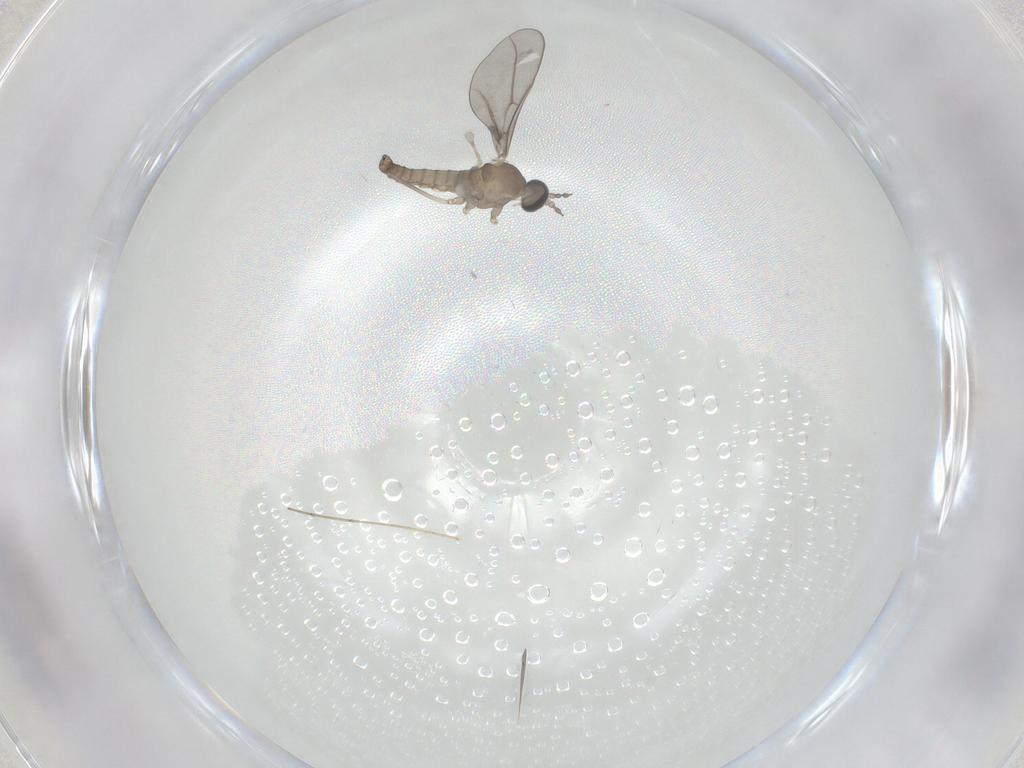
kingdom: Animalia
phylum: Arthropoda
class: Insecta
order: Diptera
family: Cecidomyiidae
